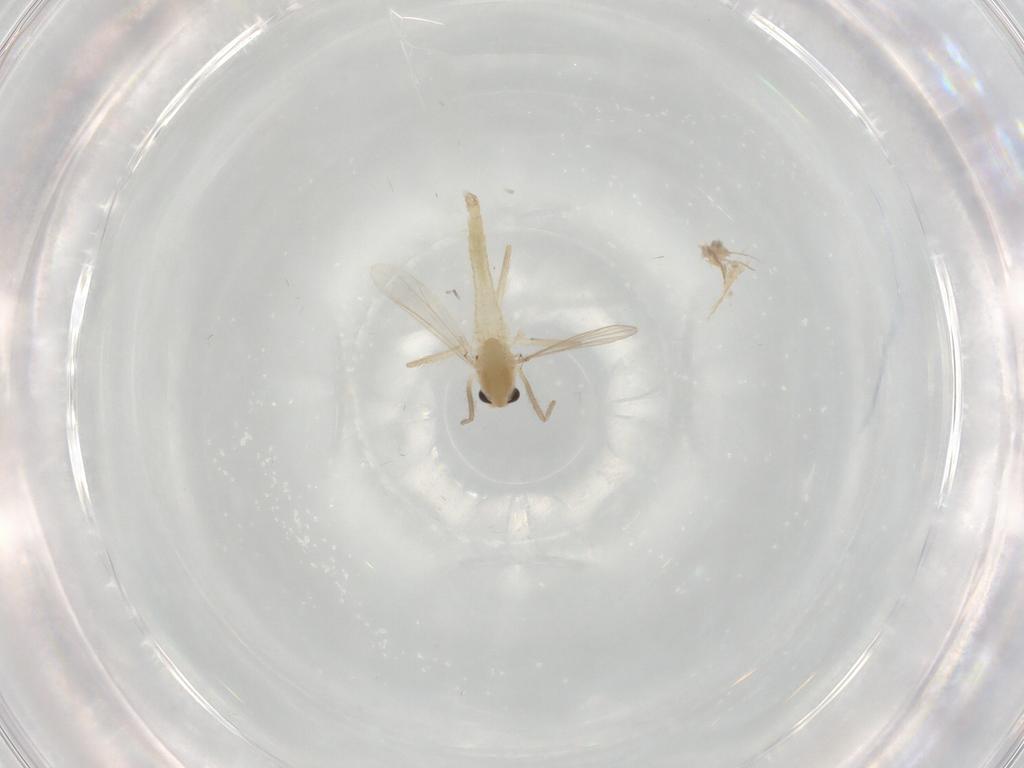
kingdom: Animalia
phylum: Arthropoda
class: Insecta
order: Diptera
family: Chironomidae
